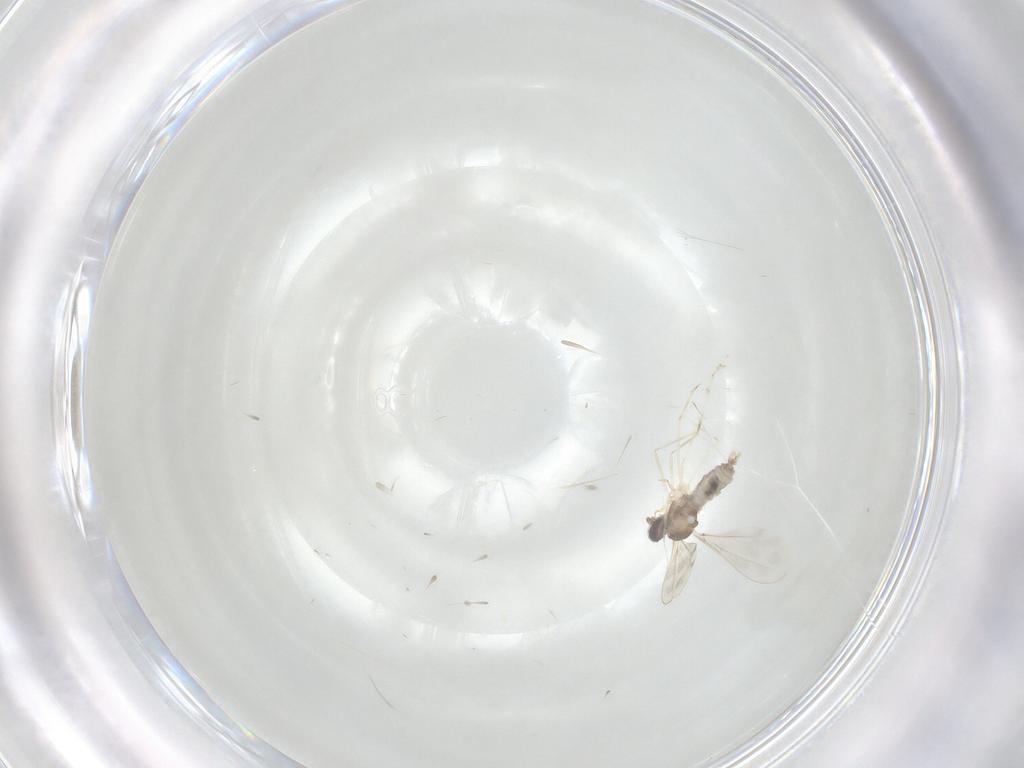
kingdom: Animalia
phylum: Arthropoda
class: Insecta
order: Diptera
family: Cecidomyiidae
